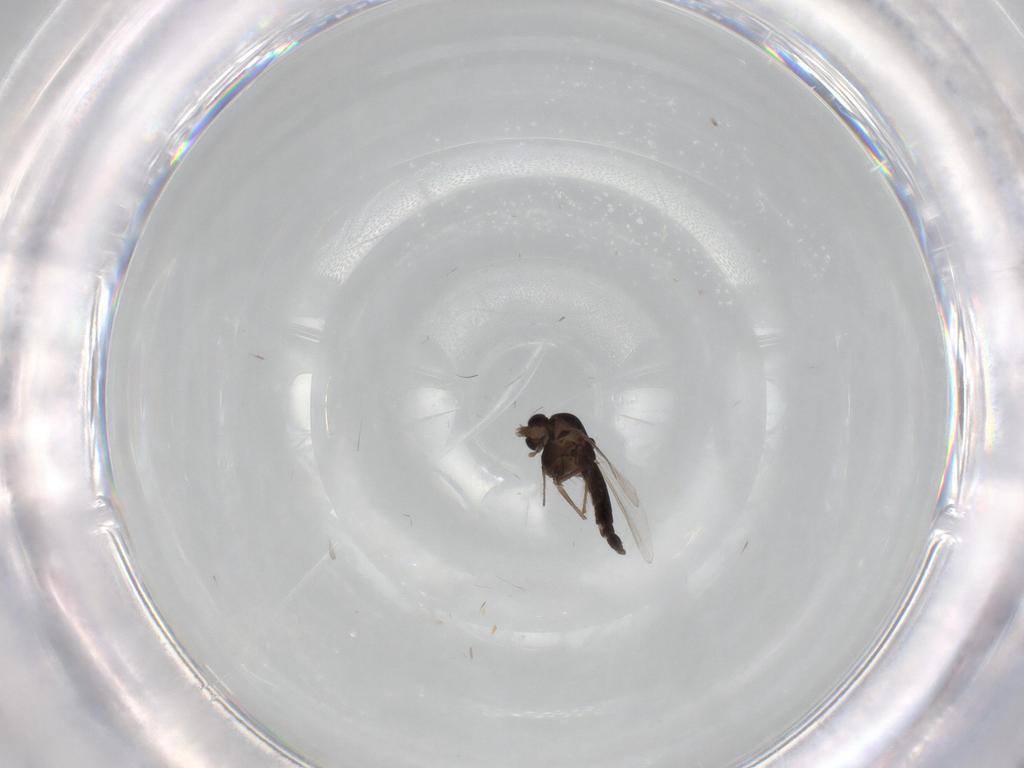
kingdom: Animalia
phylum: Arthropoda
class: Insecta
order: Diptera
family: Chironomidae
